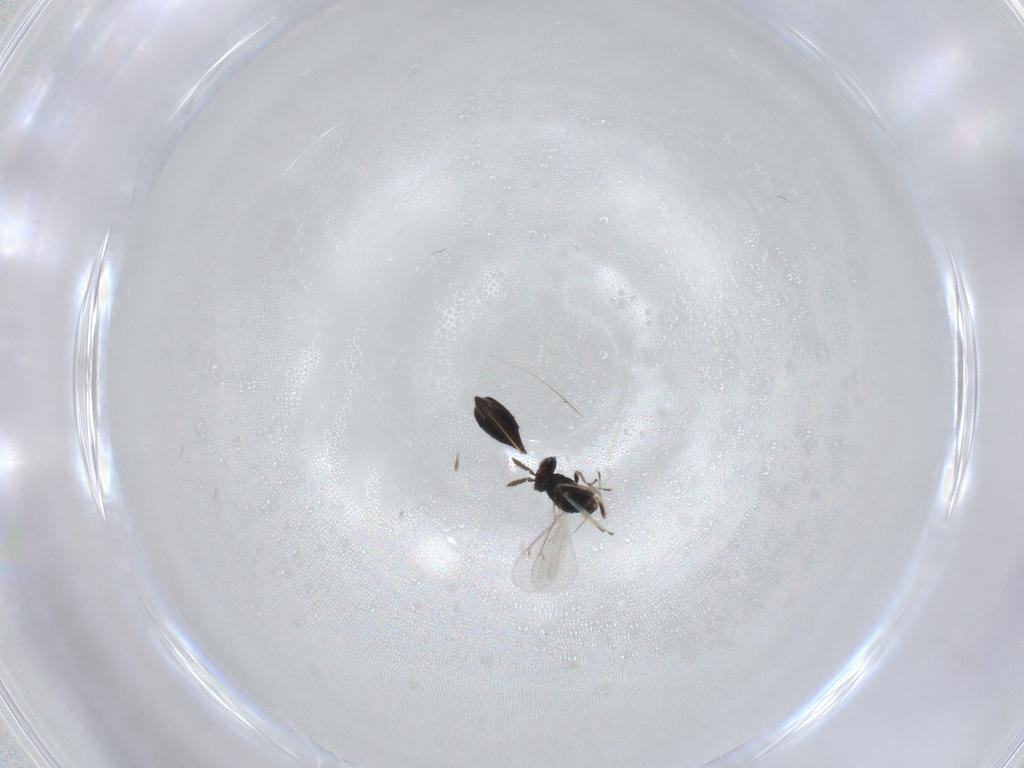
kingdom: Animalia
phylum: Arthropoda
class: Insecta
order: Hymenoptera
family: Eulophidae
